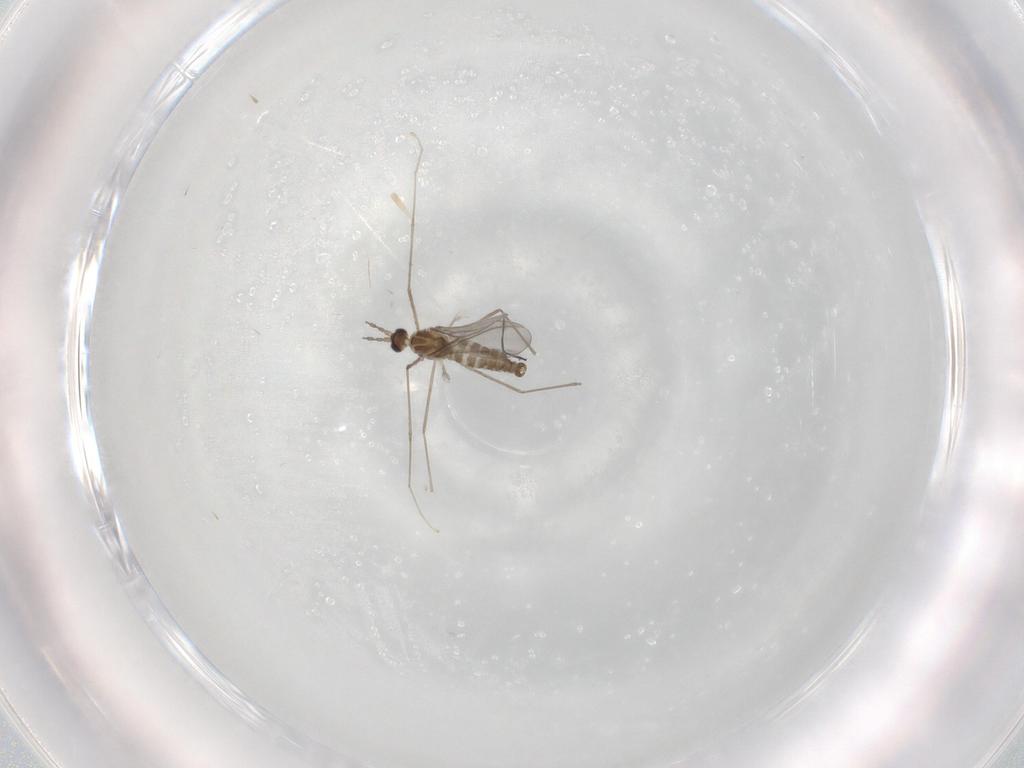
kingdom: Animalia
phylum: Arthropoda
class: Insecta
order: Diptera
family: Cecidomyiidae
